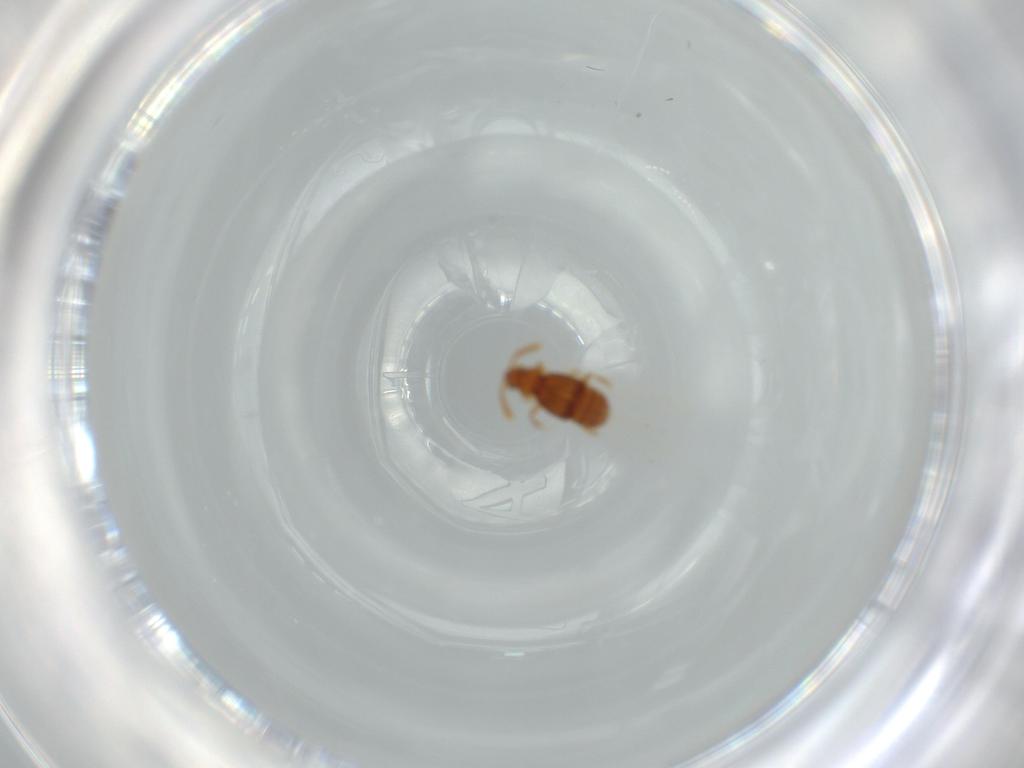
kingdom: Animalia
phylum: Arthropoda
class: Insecta
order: Coleoptera
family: Staphylinidae
